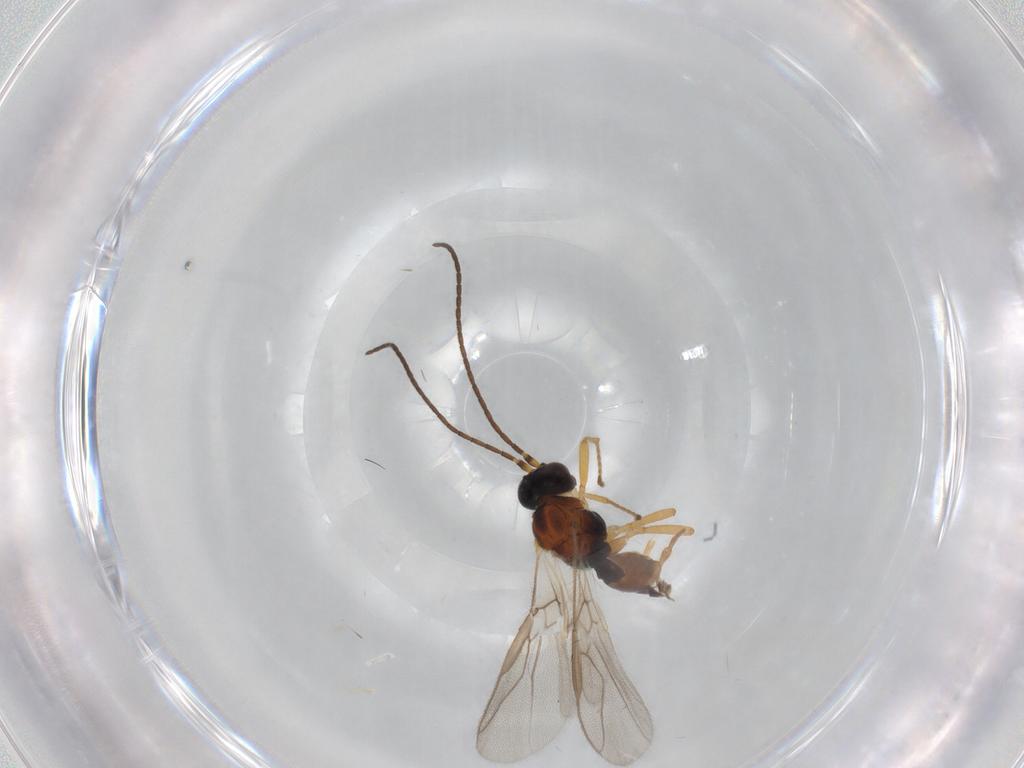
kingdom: Animalia
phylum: Arthropoda
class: Insecta
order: Hymenoptera
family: Braconidae
